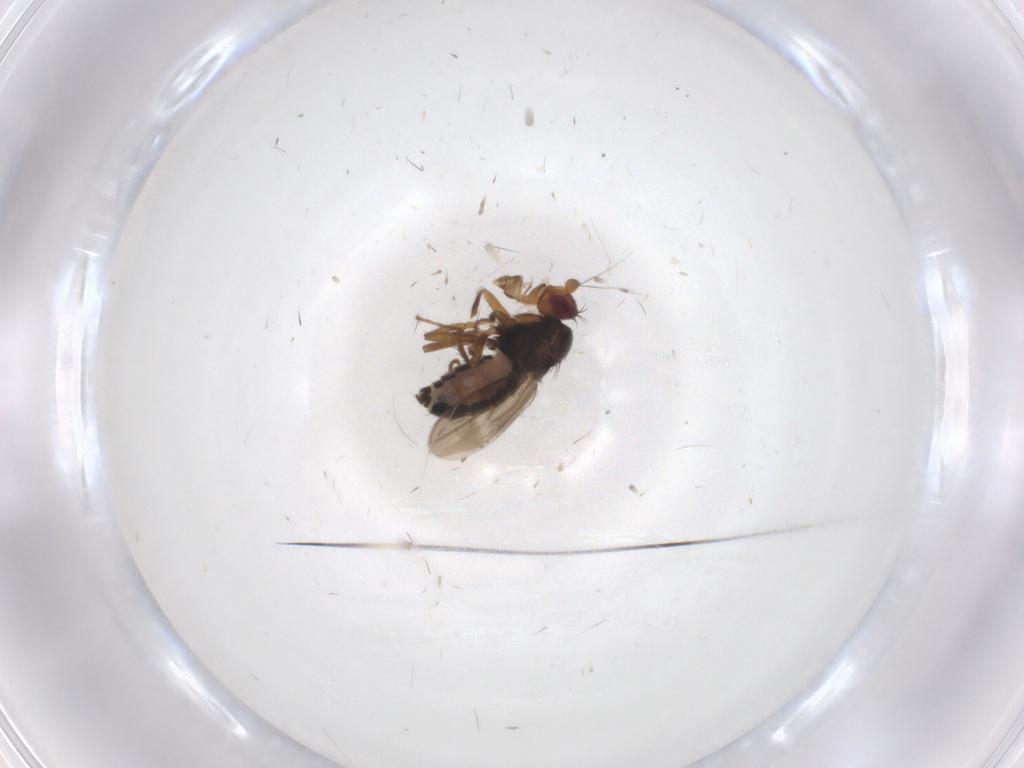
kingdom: Animalia
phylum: Arthropoda
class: Insecta
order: Diptera
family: Sphaeroceridae
